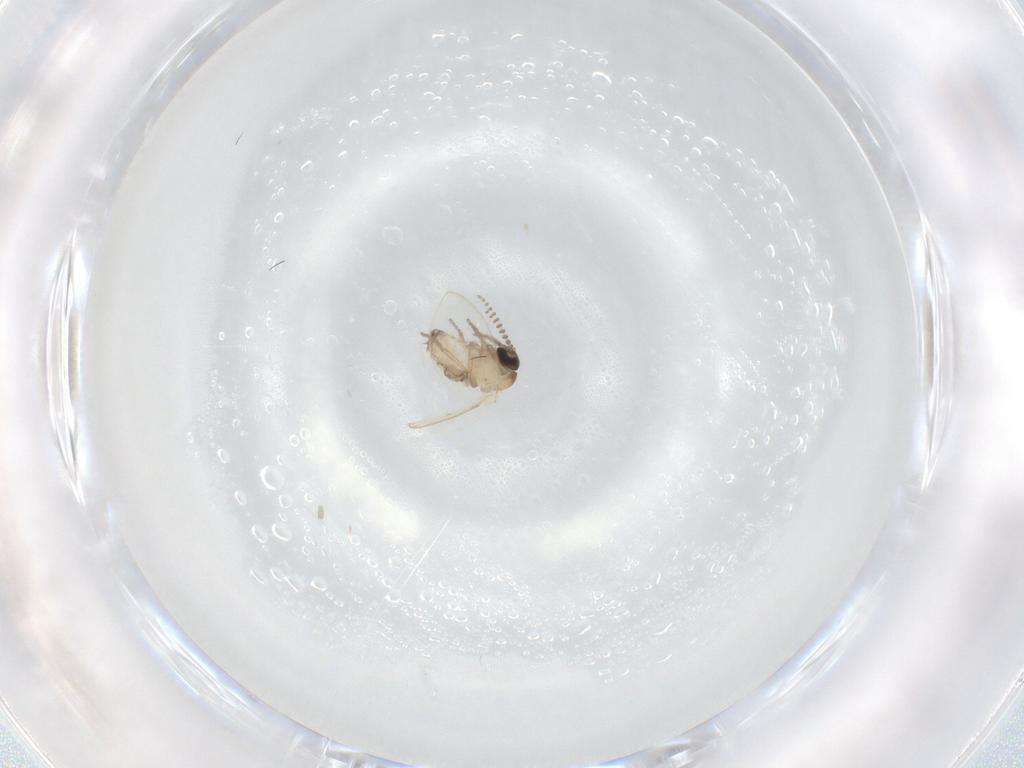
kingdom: Animalia
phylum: Arthropoda
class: Insecta
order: Diptera
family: Psychodidae
